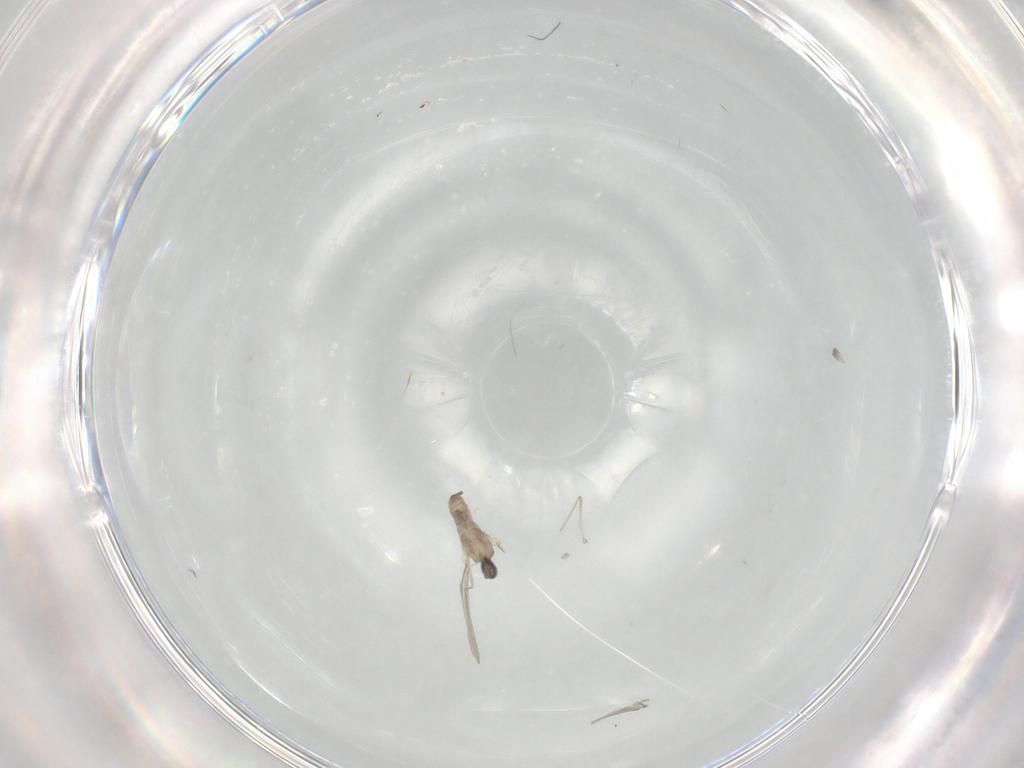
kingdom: Animalia
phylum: Arthropoda
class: Insecta
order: Diptera
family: Cecidomyiidae
